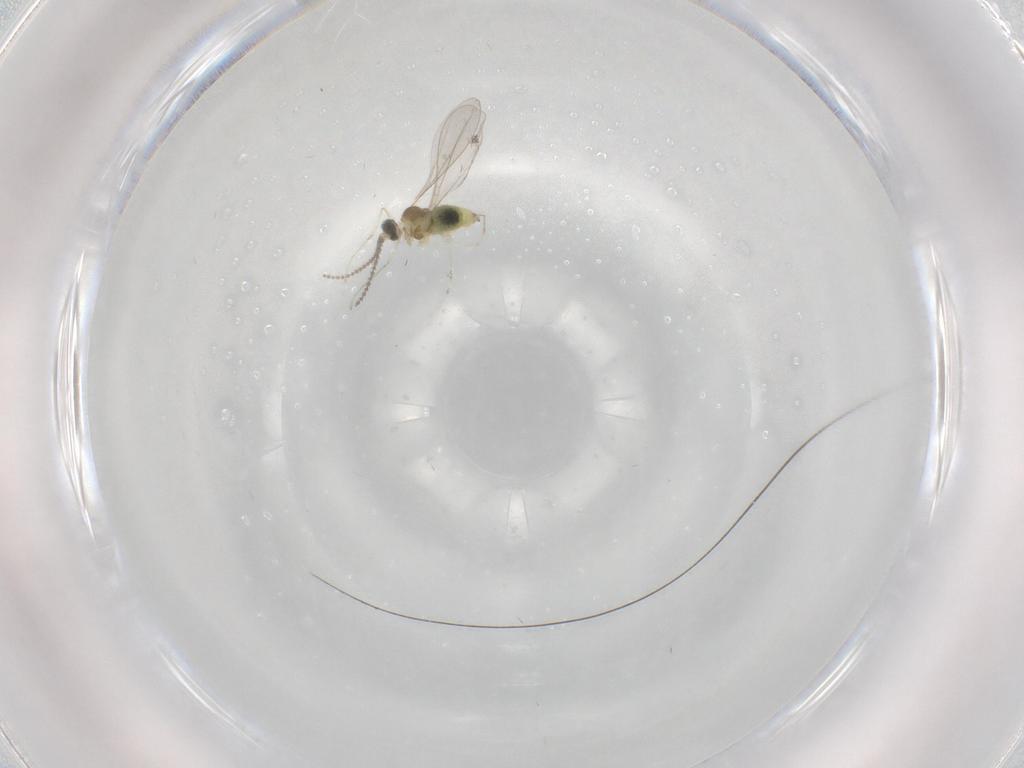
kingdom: Animalia
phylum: Arthropoda
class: Insecta
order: Diptera
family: Cecidomyiidae
